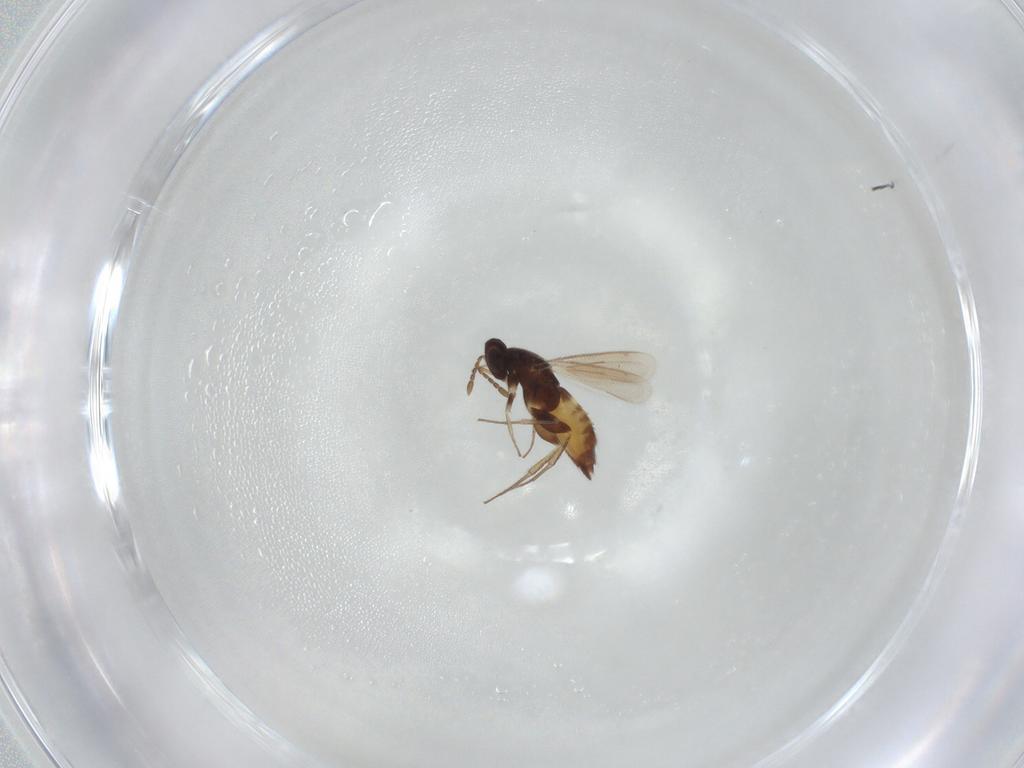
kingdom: Animalia
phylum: Arthropoda
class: Insecta
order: Hymenoptera
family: Eulophidae
